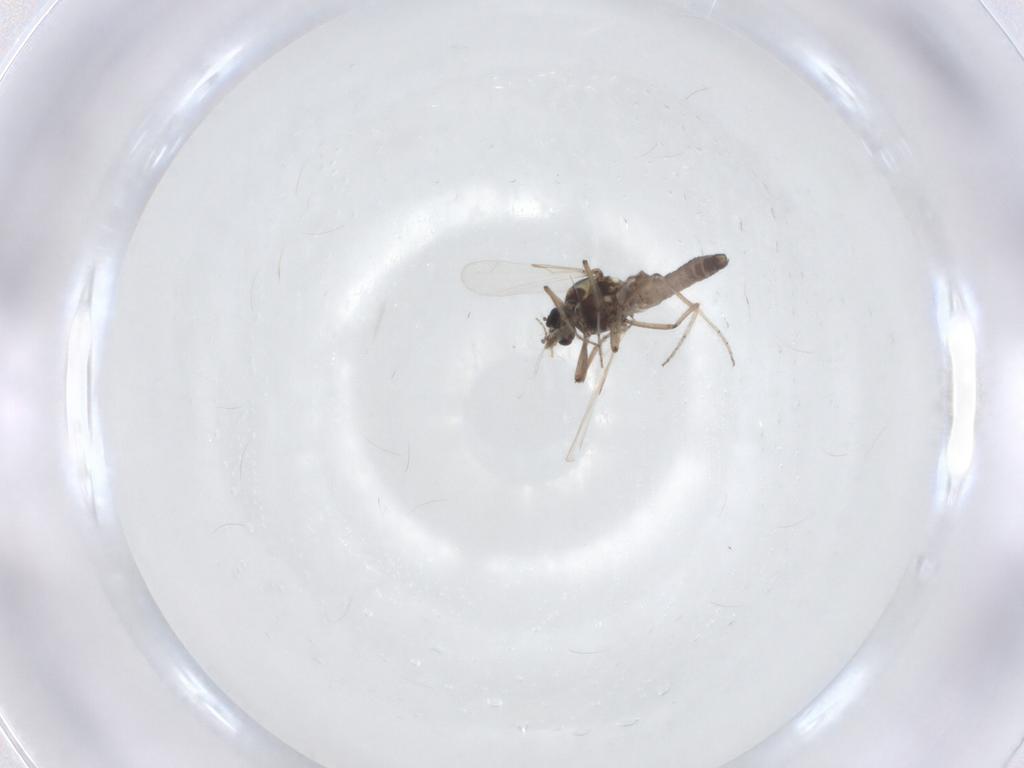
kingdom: Animalia
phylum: Arthropoda
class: Insecta
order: Diptera
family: Ceratopogonidae
